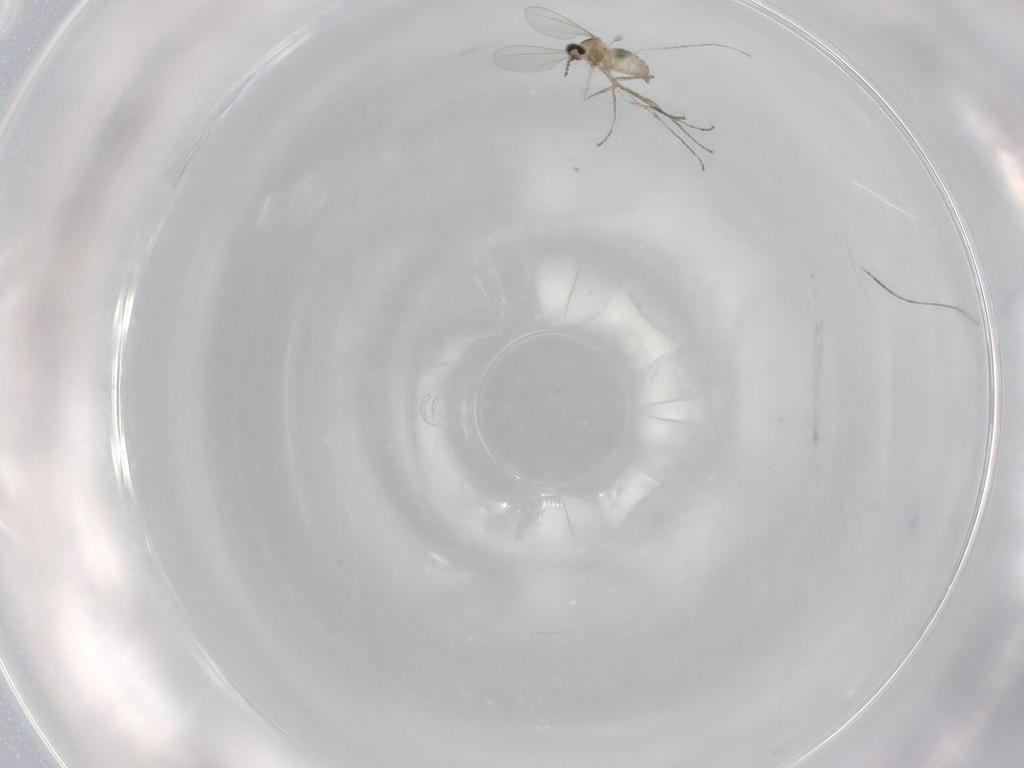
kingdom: Animalia
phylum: Arthropoda
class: Insecta
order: Diptera
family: Cecidomyiidae
